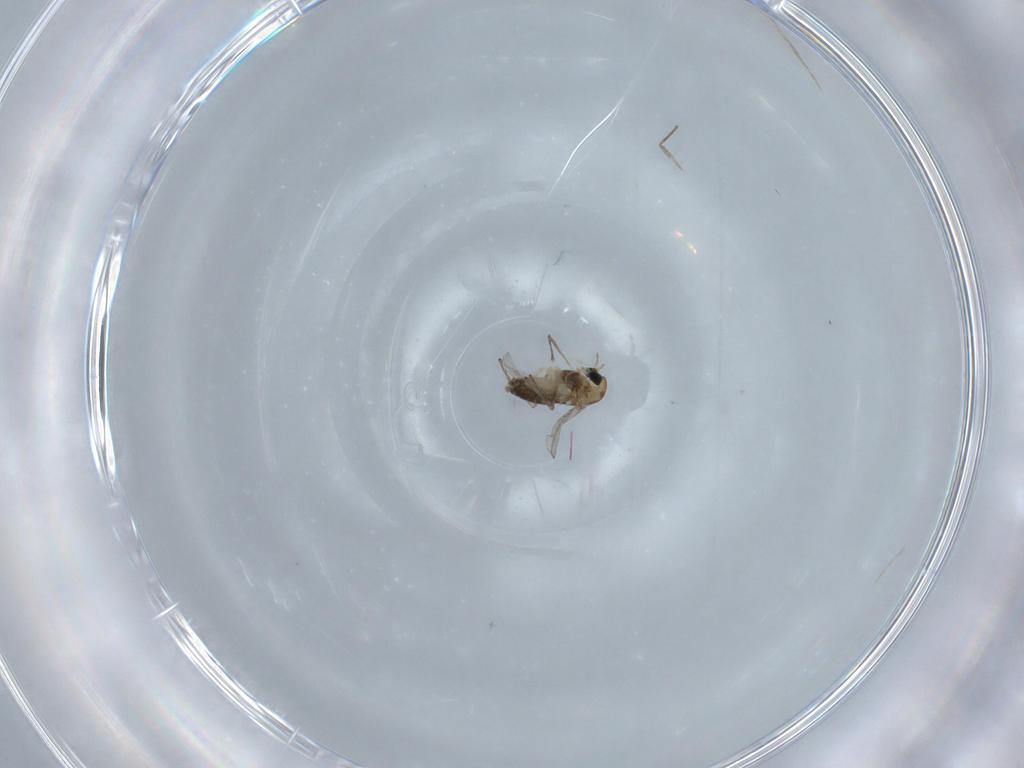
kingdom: Animalia
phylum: Arthropoda
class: Insecta
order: Diptera
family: Chironomidae
